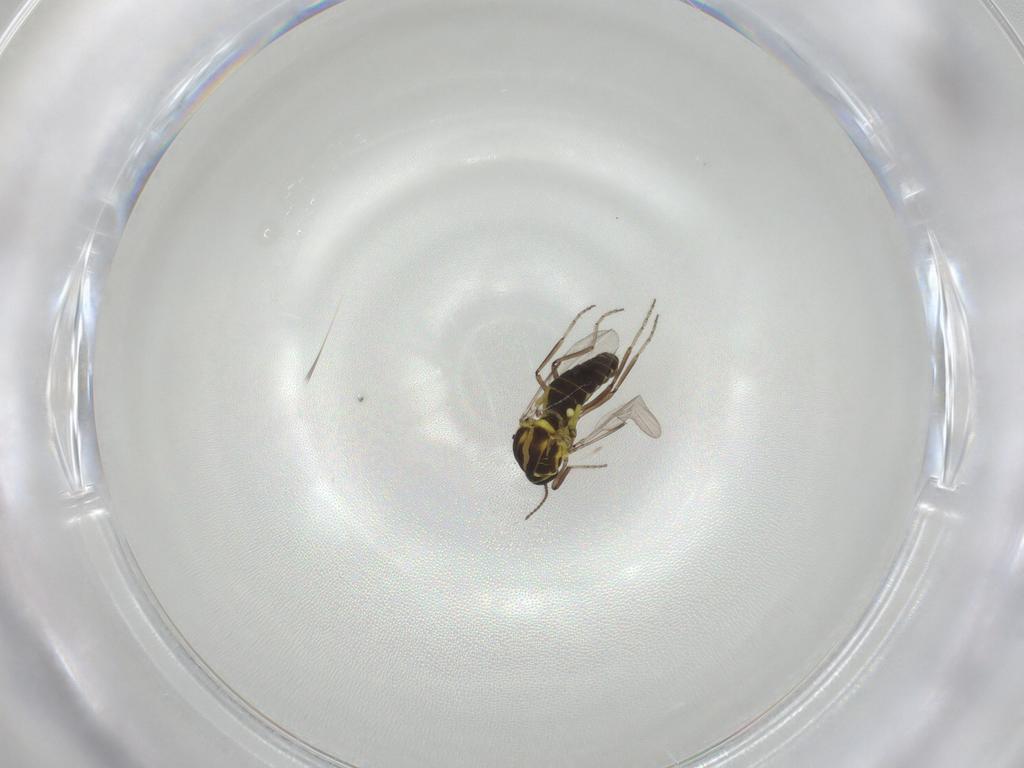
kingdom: Animalia
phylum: Arthropoda
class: Insecta
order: Diptera
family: Ceratopogonidae
